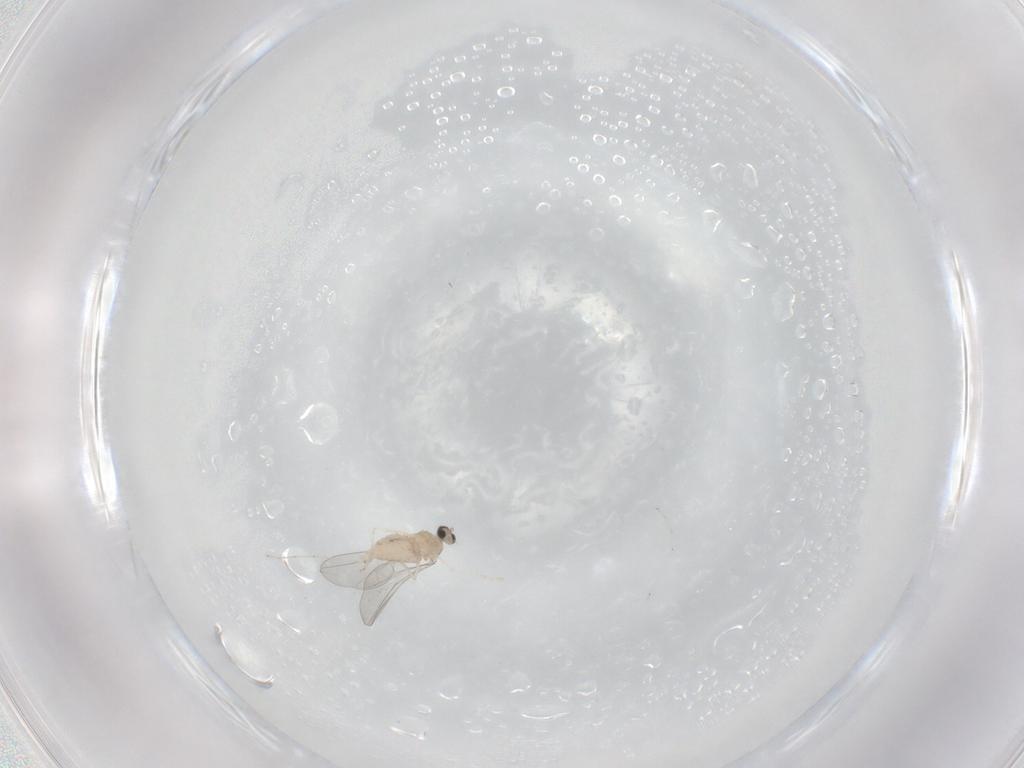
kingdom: Animalia
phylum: Arthropoda
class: Insecta
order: Diptera
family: Cecidomyiidae
